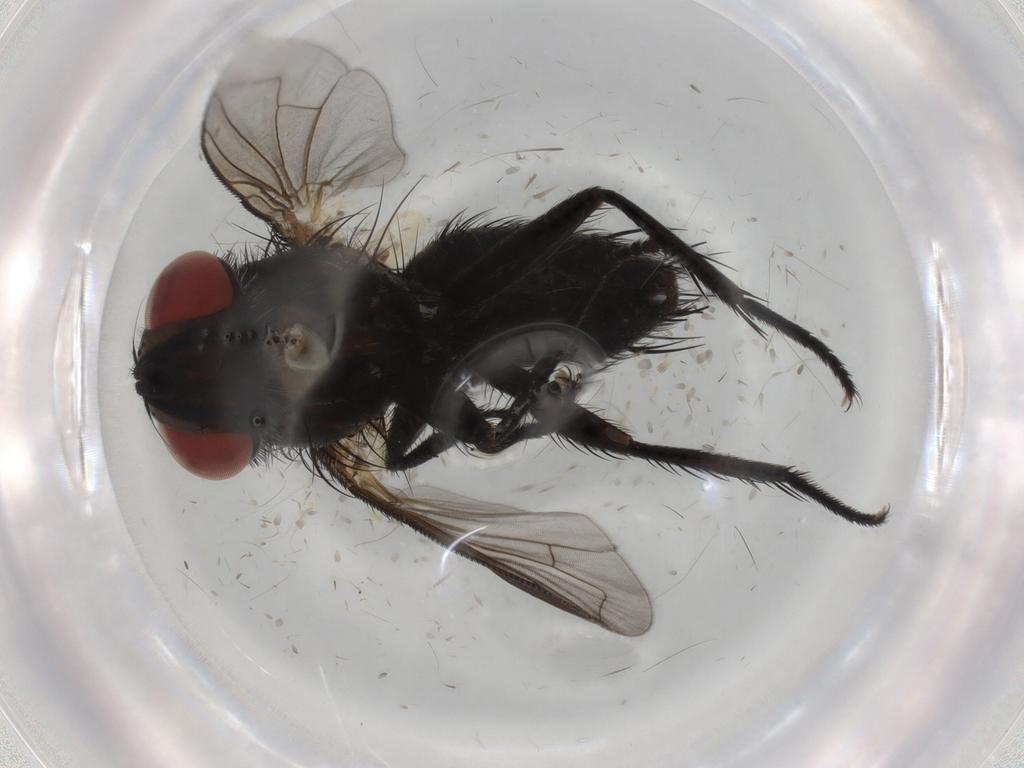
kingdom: Animalia
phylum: Arthropoda
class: Insecta
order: Diptera
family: Tachinidae
